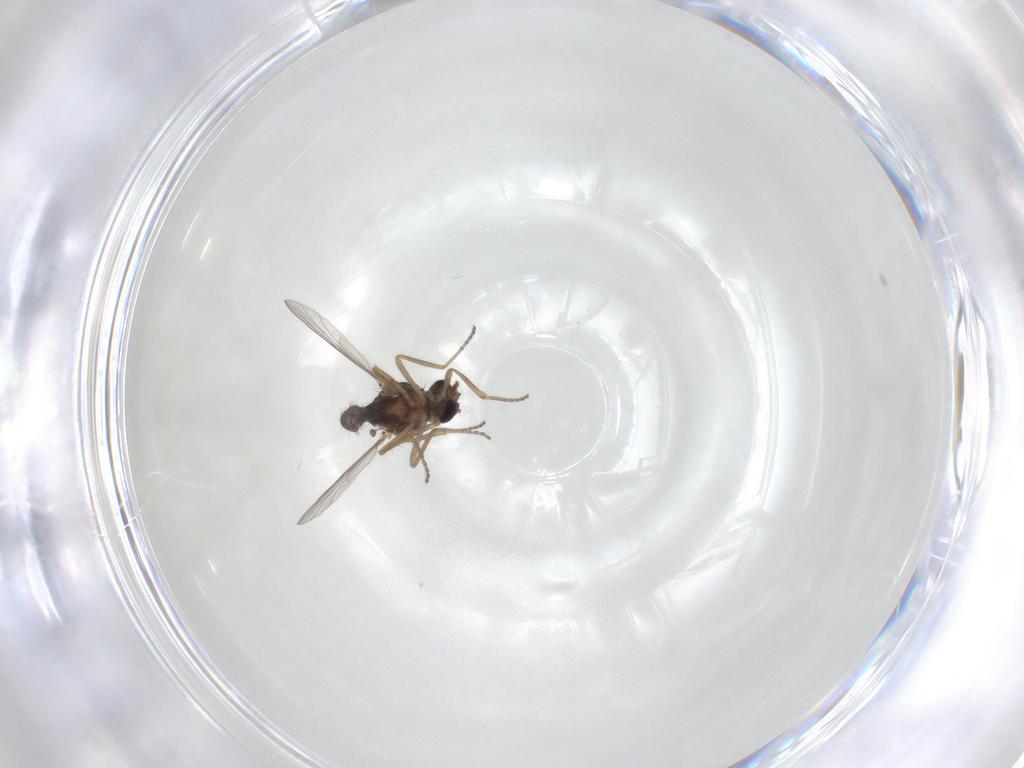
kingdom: Animalia
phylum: Arthropoda
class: Insecta
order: Diptera
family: Ceratopogonidae
